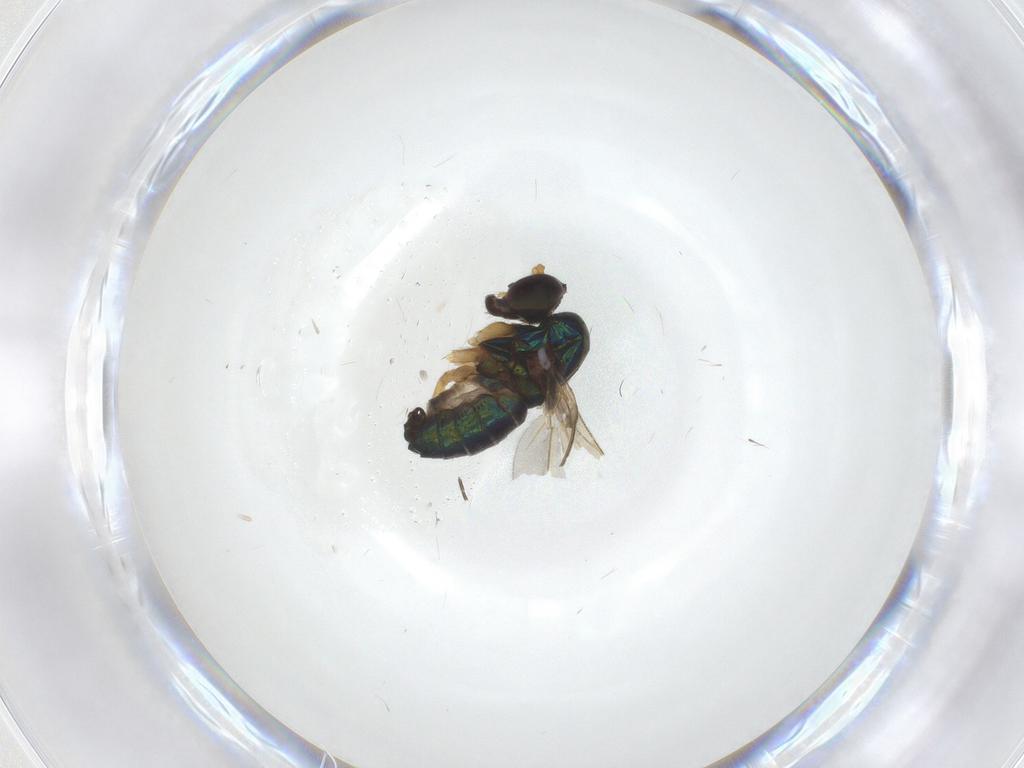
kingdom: Animalia
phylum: Arthropoda
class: Insecta
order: Diptera
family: Dolichopodidae
